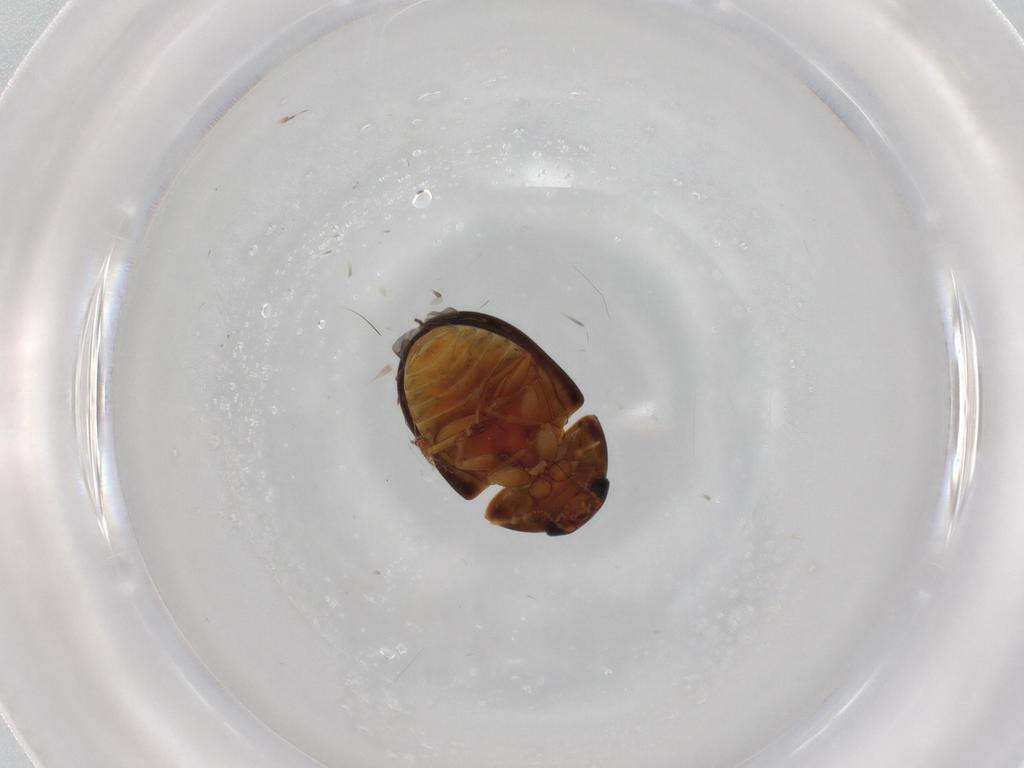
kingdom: Animalia
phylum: Arthropoda
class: Insecta
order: Coleoptera
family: Phalacridae
